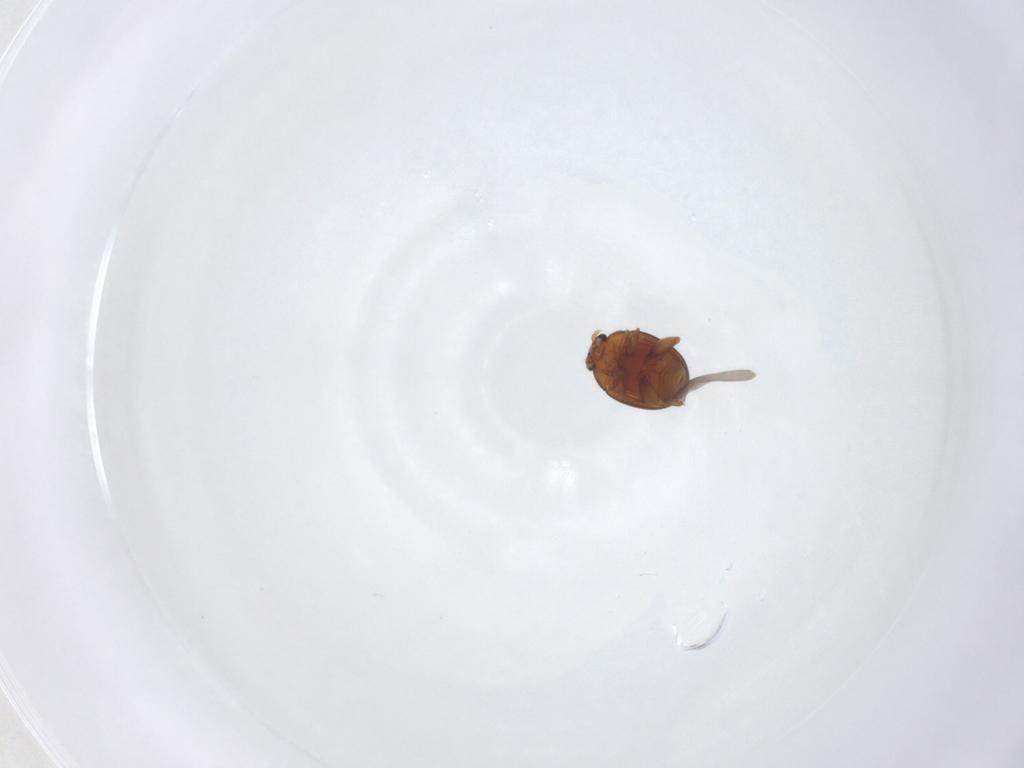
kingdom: Animalia
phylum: Arthropoda
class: Insecta
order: Coleoptera
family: Chrysomelidae
